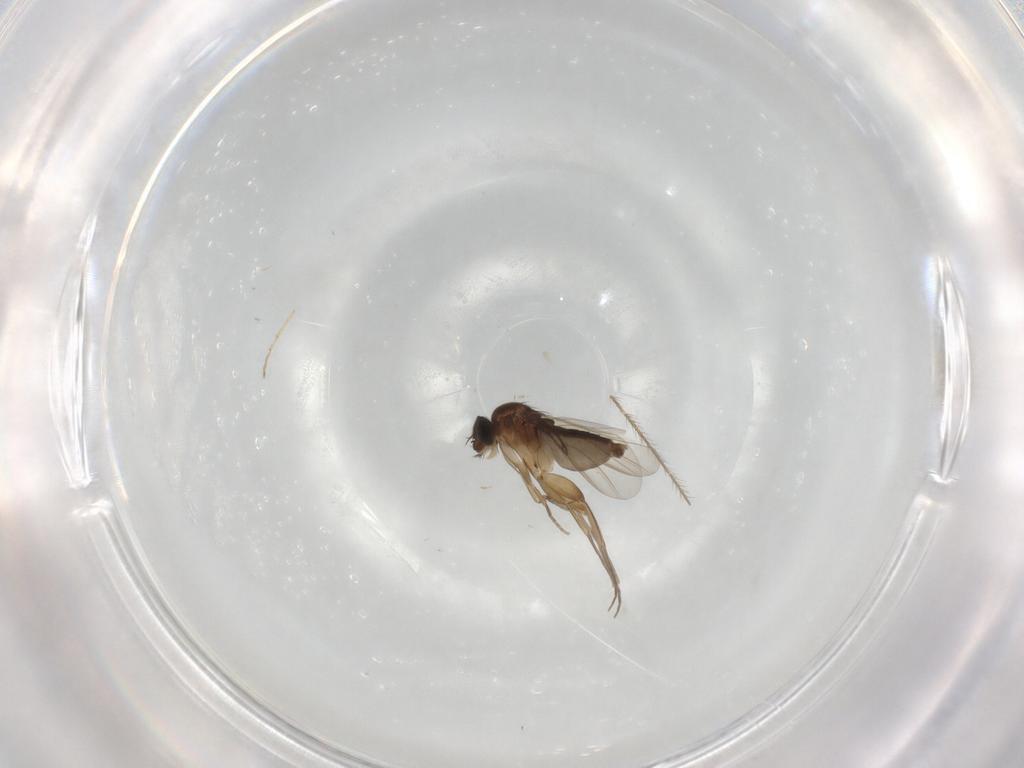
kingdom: Animalia
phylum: Arthropoda
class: Insecta
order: Diptera
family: Phoridae
